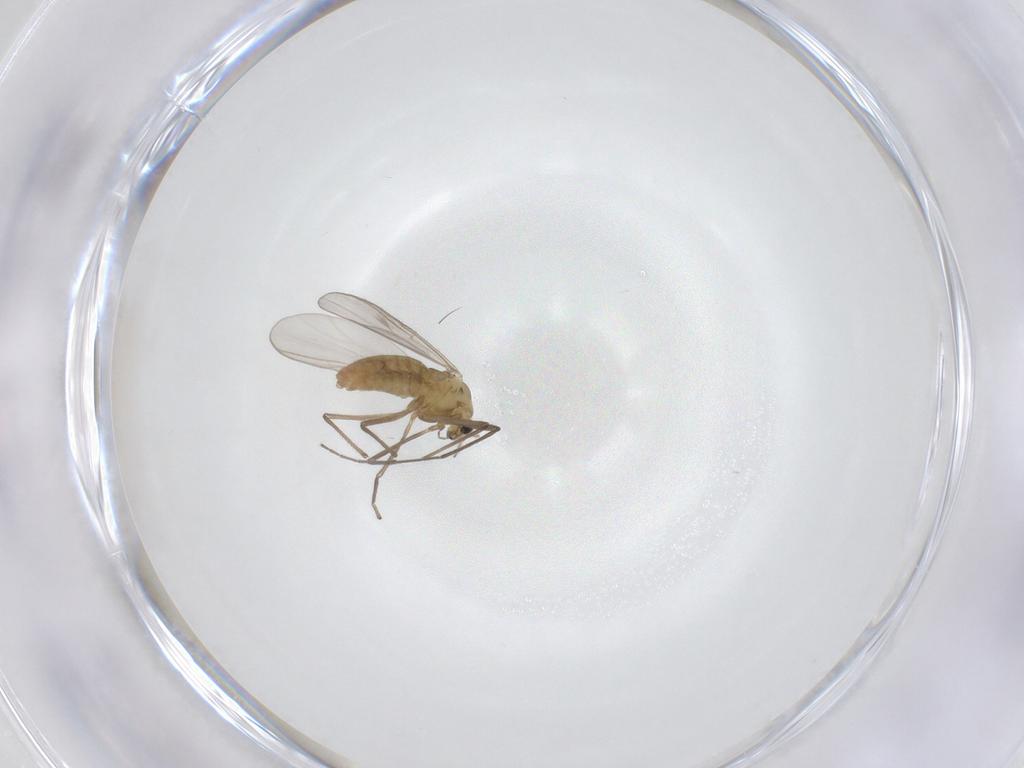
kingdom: Animalia
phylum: Arthropoda
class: Insecta
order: Diptera
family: Chironomidae
